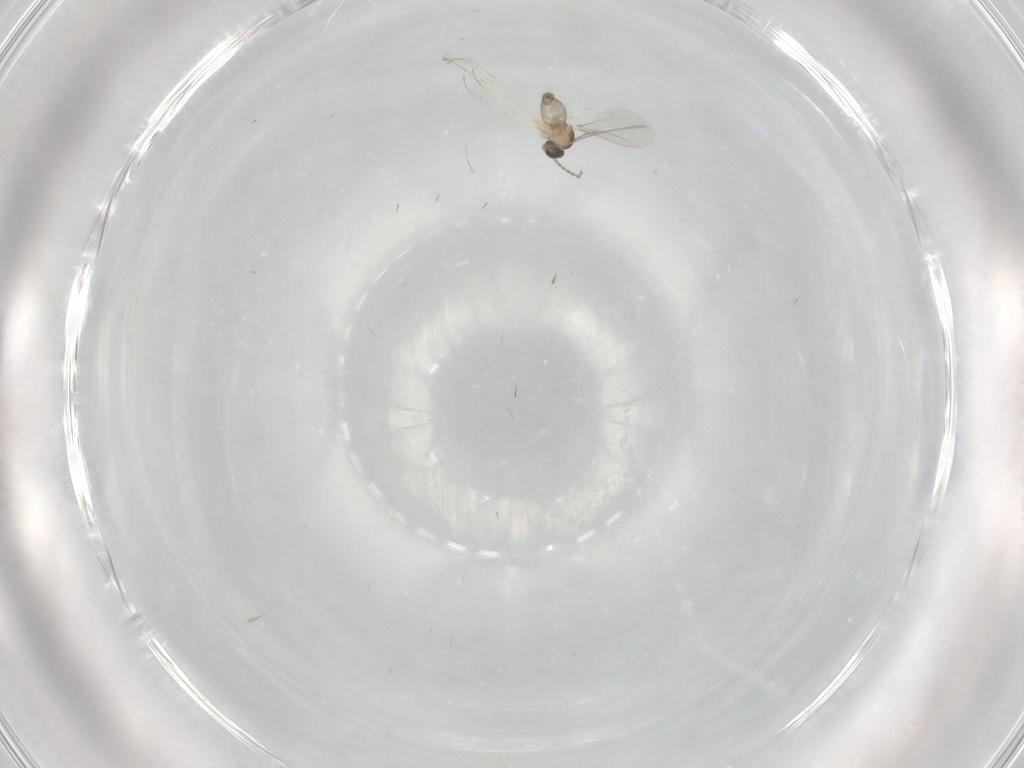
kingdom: Animalia
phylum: Arthropoda
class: Insecta
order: Diptera
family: Cecidomyiidae
